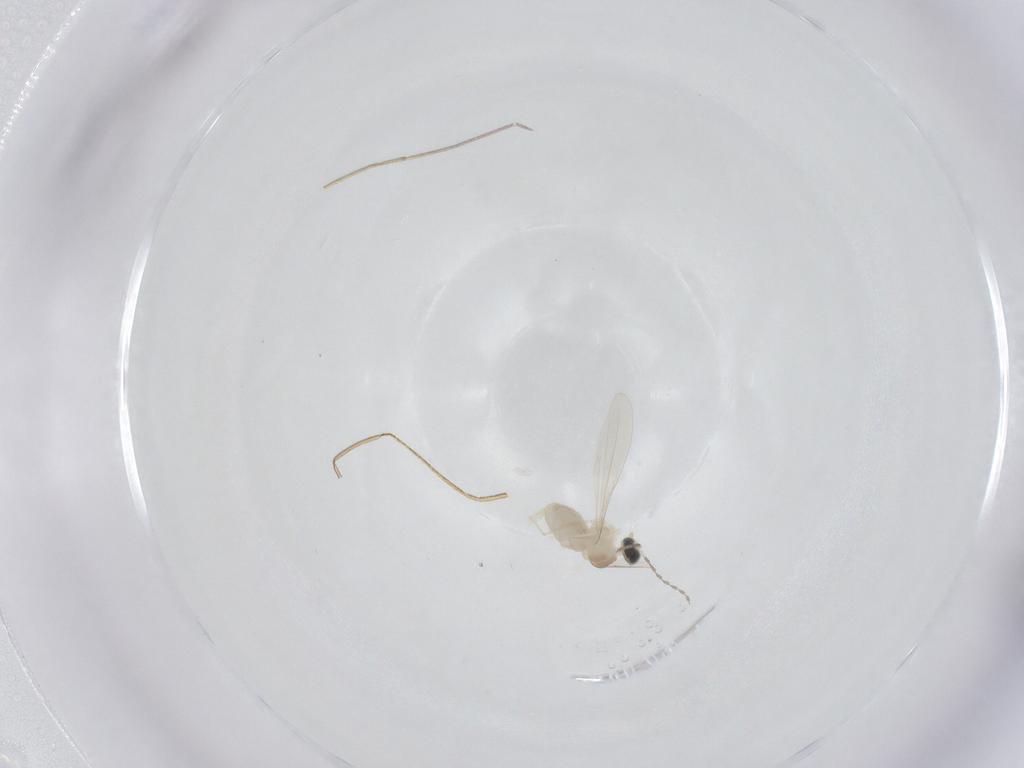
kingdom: Animalia
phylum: Arthropoda
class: Insecta
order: Diptera
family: Cecidomyiidae
